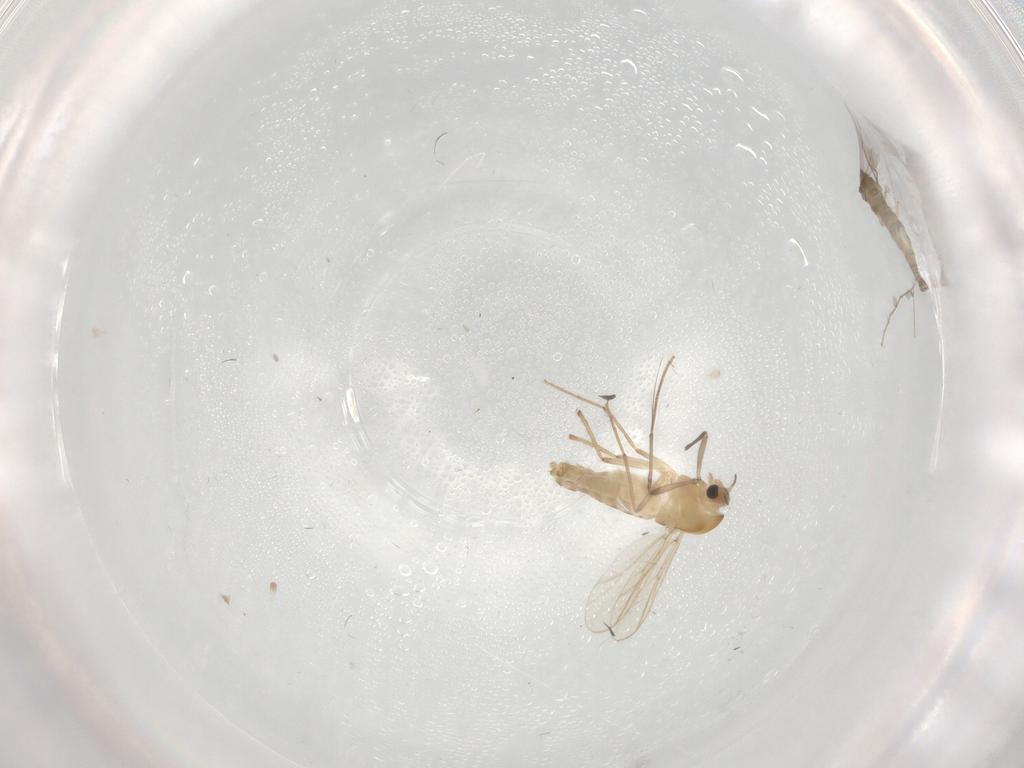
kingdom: Animalia
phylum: Arthropoda
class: Insecta
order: Diptera
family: Chironomidae
